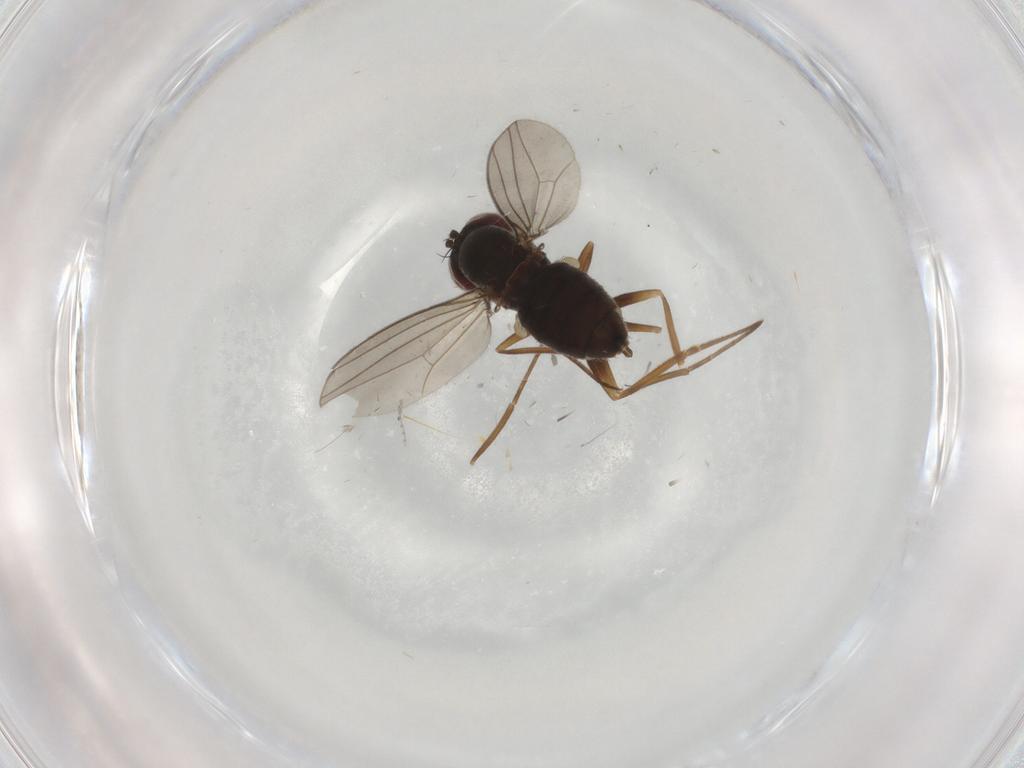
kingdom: Animalia
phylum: Arthropoda
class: Insecta
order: Diptera
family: Dolichopodidae
